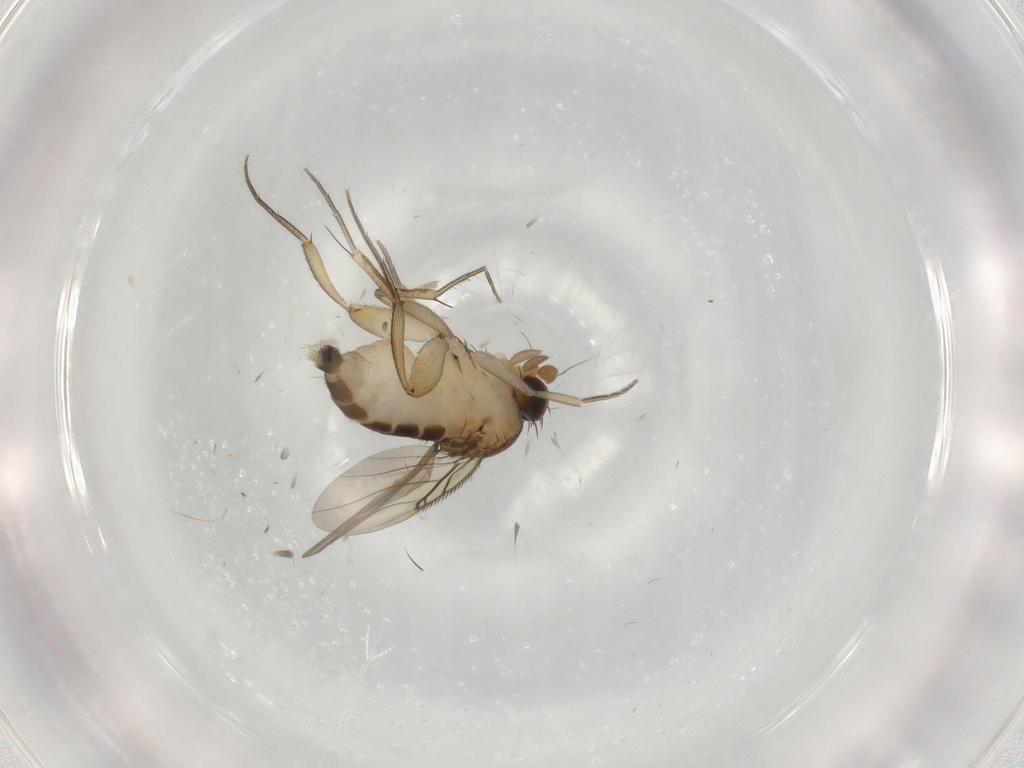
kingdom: Animalia
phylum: Arthropoda
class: Insecta
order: Diptera
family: Phoridae
